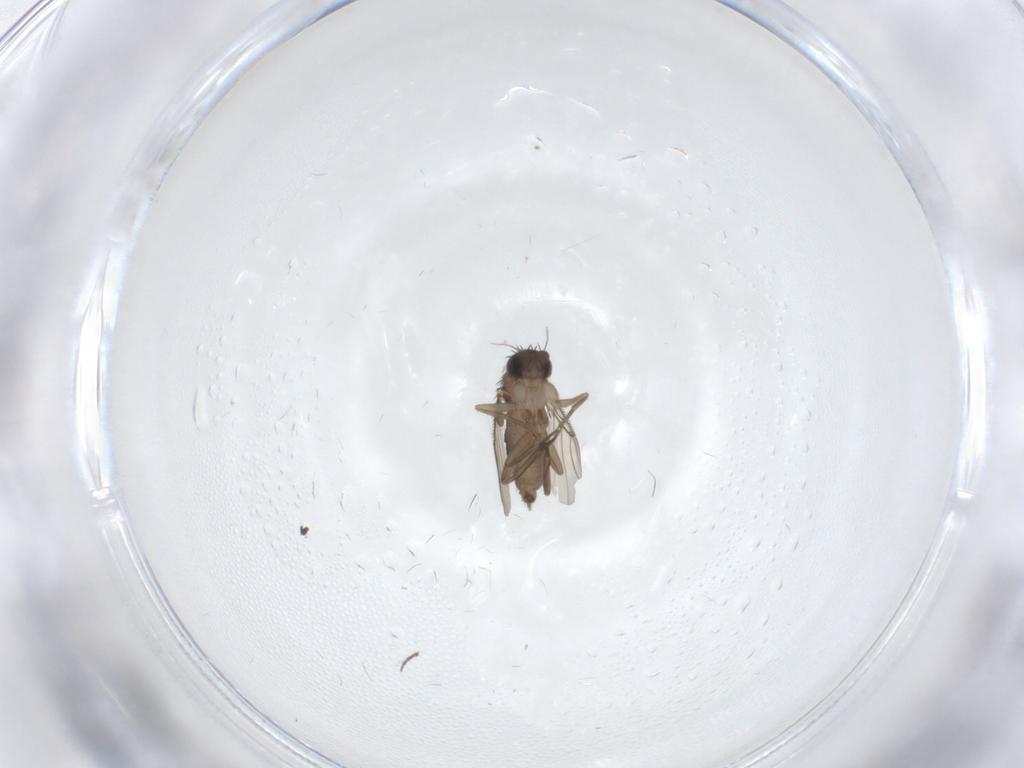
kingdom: Animalia
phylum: Arthropoda
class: Insecta
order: Diptera
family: Phoridae
